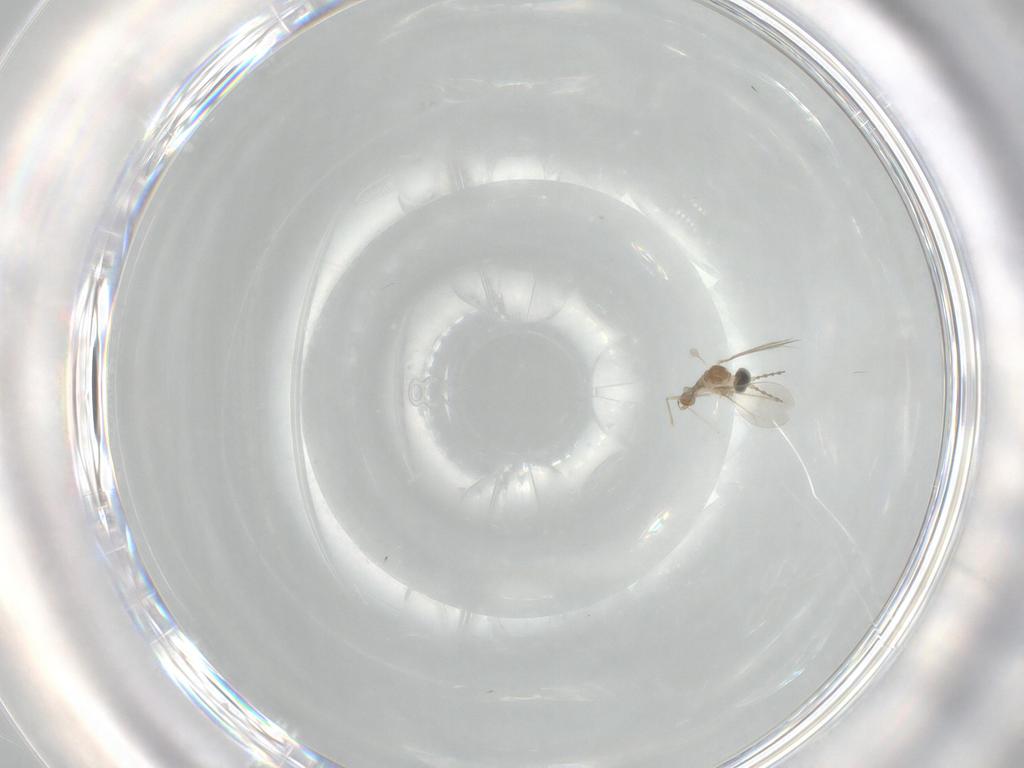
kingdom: Animalia
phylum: Arthropoda
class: Insecta
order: Diptera
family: Cecidomyiidae
